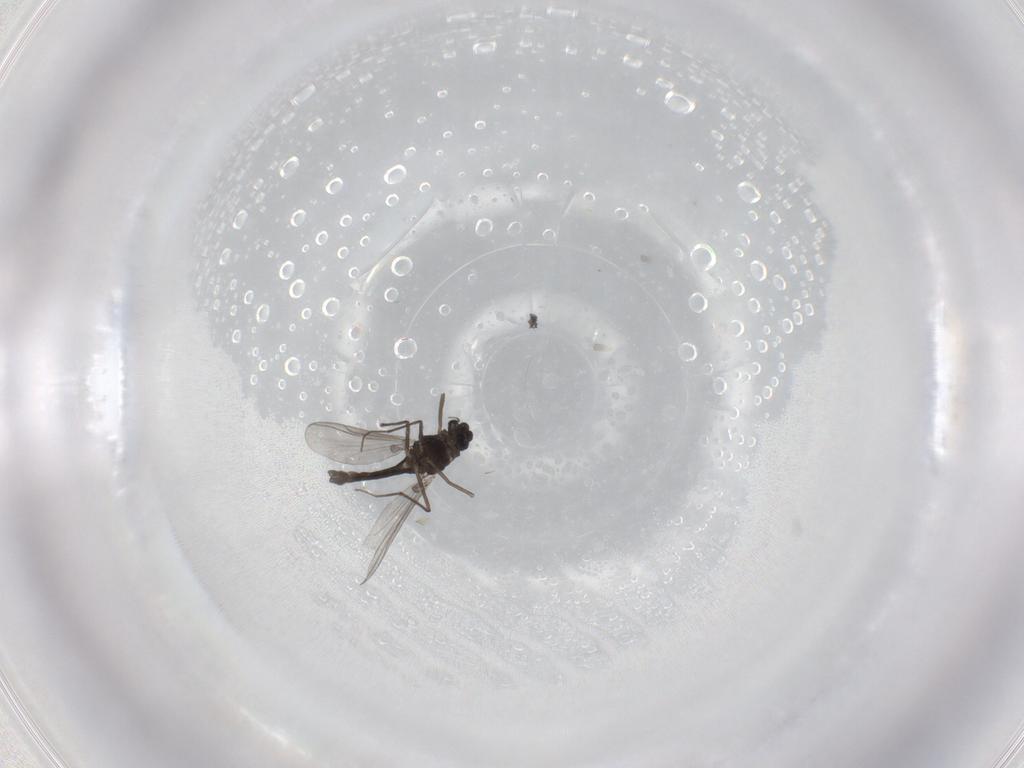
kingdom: Animalia
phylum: Arthropoda
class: Insecta
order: Diptera
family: Chironomidae
